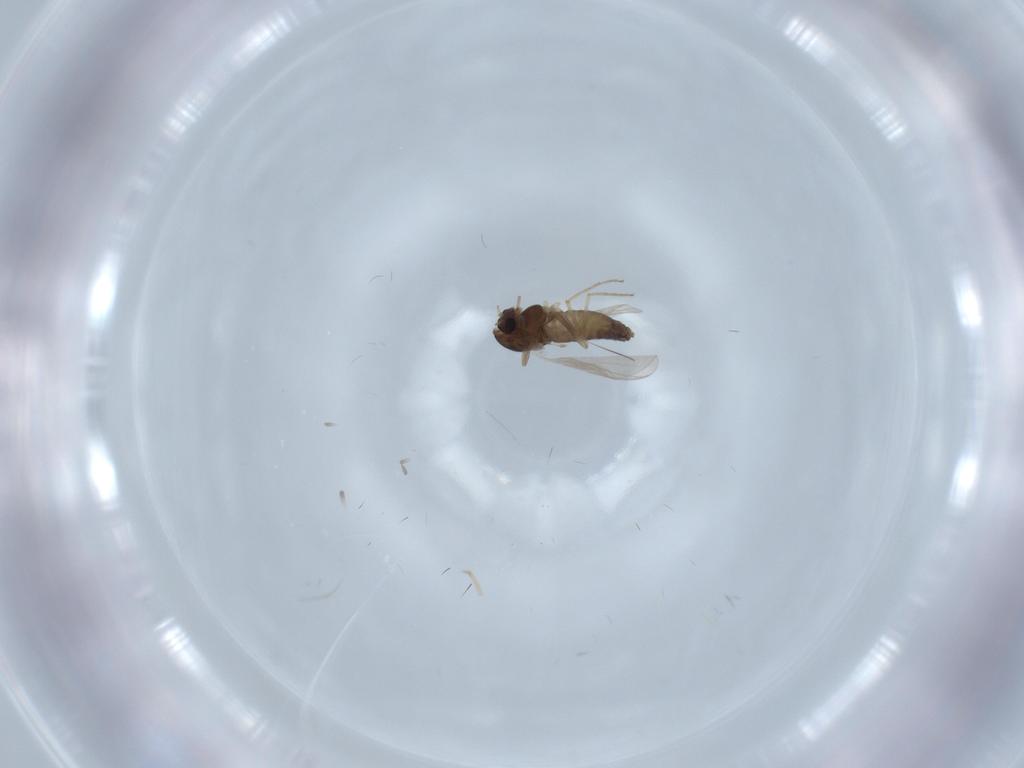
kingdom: Animalia
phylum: Arthropoda
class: Insecta
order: Diptera
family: Chironomidae
